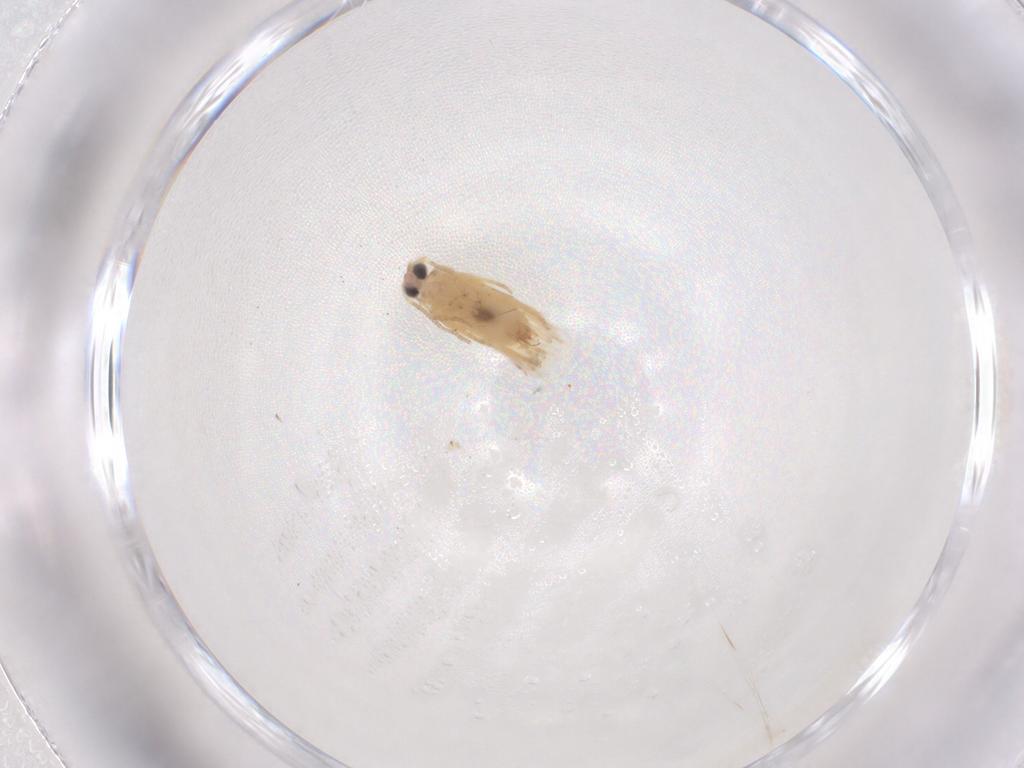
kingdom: Animalia
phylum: Arthropoda
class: Insecta
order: Lepidoptera
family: Crambidae
